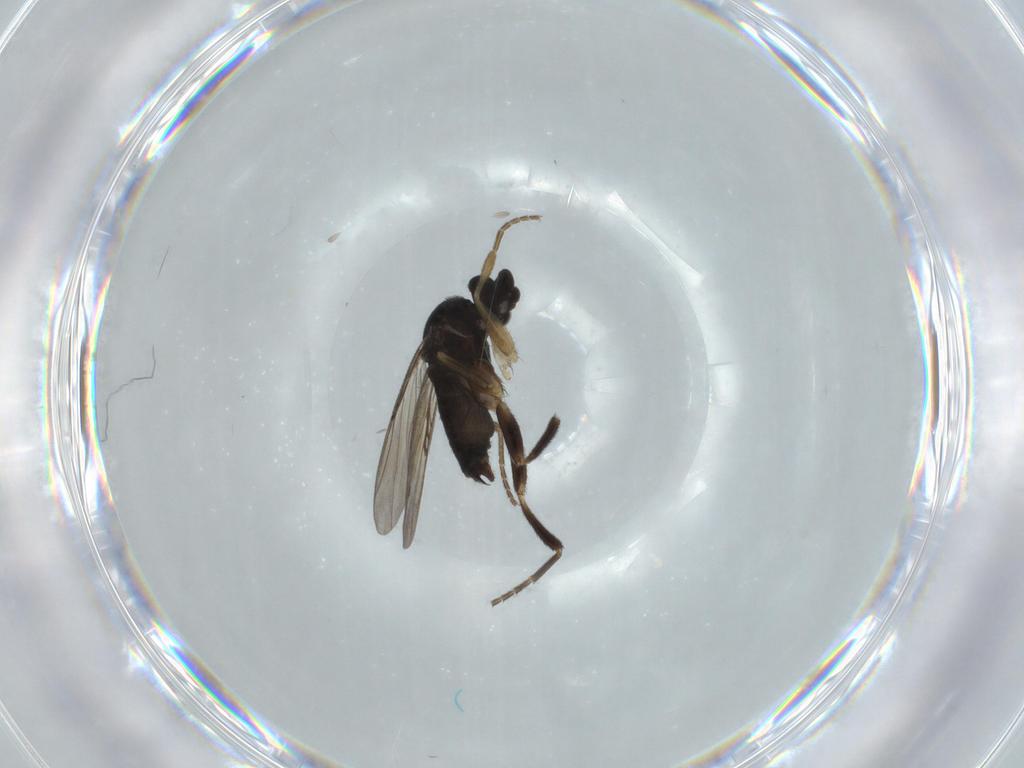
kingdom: Animalia
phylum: Arthropoda
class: Insecta
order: Diptera
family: Phoridae
